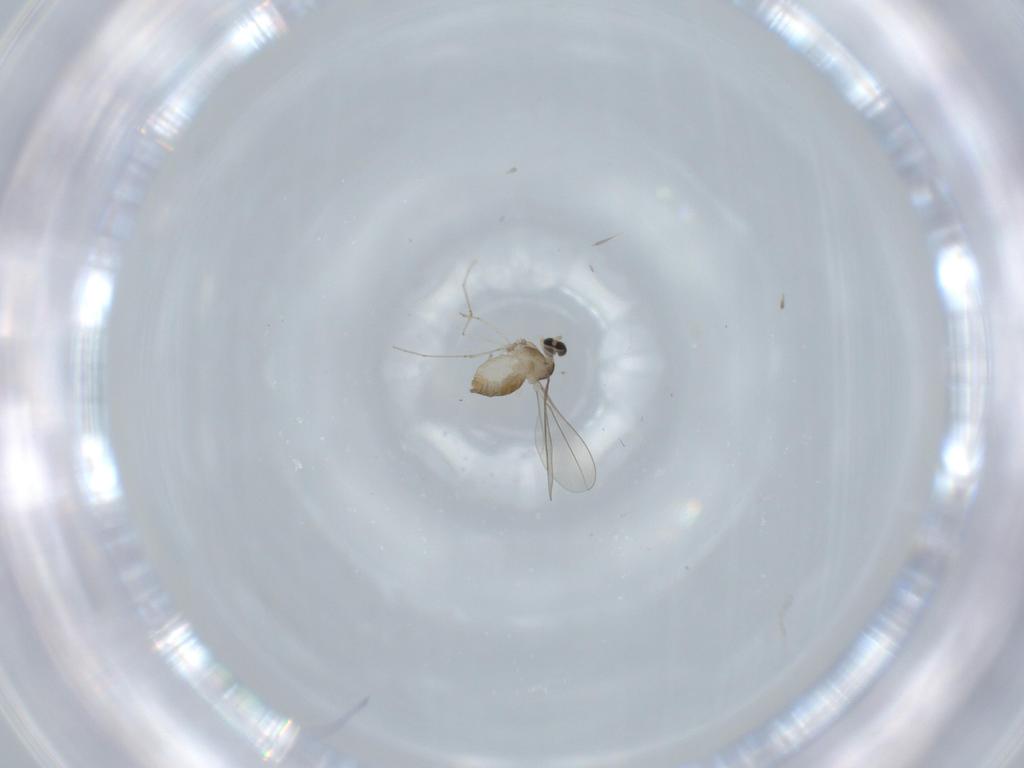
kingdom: Animalia
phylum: Arthropoda
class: Insecta
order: Diptera
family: Cecidomyiidae
